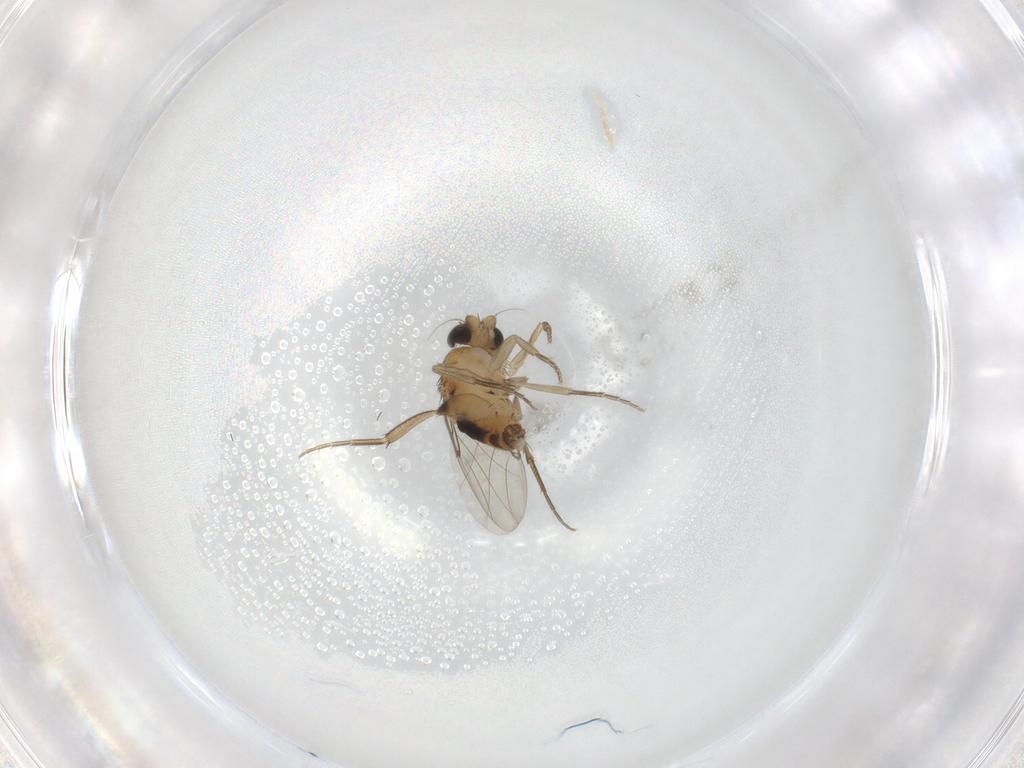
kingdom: Animalia
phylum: Arthropoda
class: Insecta
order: Diptera
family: Phoridae
